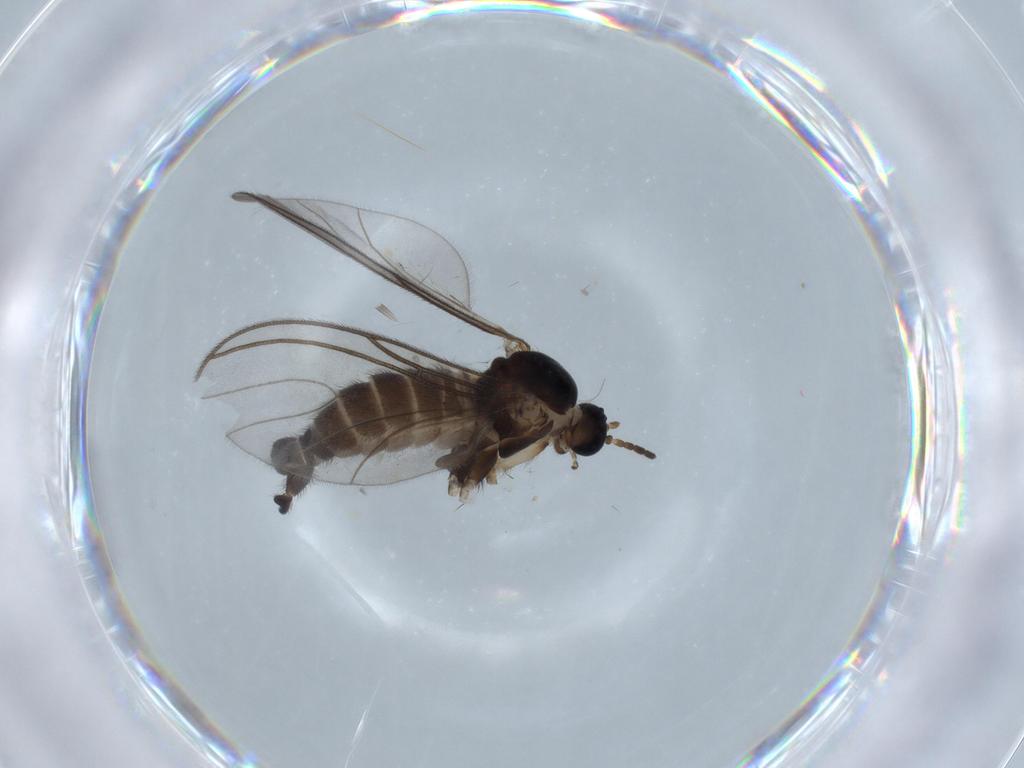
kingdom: Animalia
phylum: Arthropoda
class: Insecta
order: Diptera
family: Sciaridae
